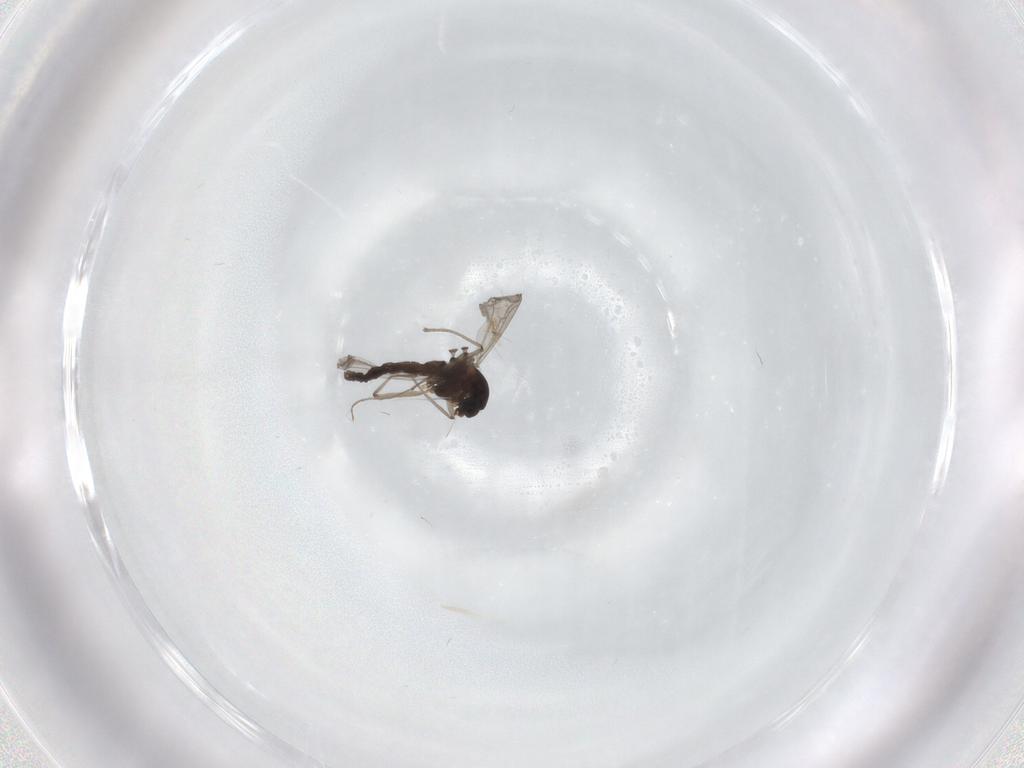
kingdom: Animalia
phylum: Arthropoda
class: Insecta
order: Diptera
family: Chironomidae
